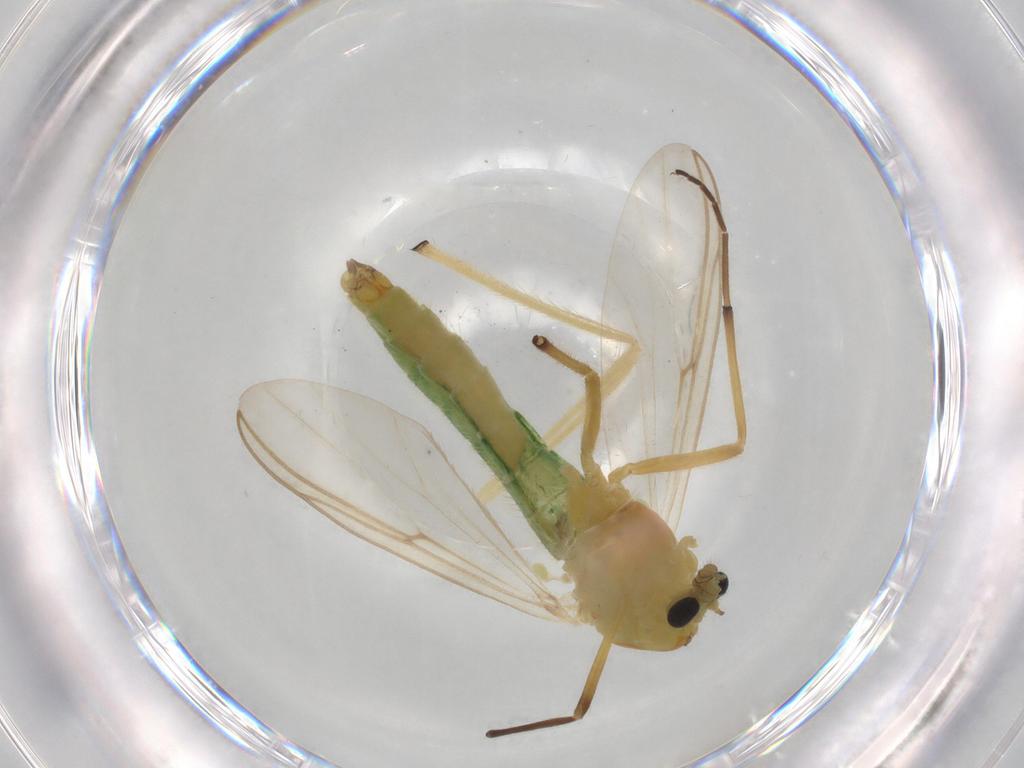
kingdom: Animalia
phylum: Arthropoda
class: Insecta
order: Diptera
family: Chironomidae
